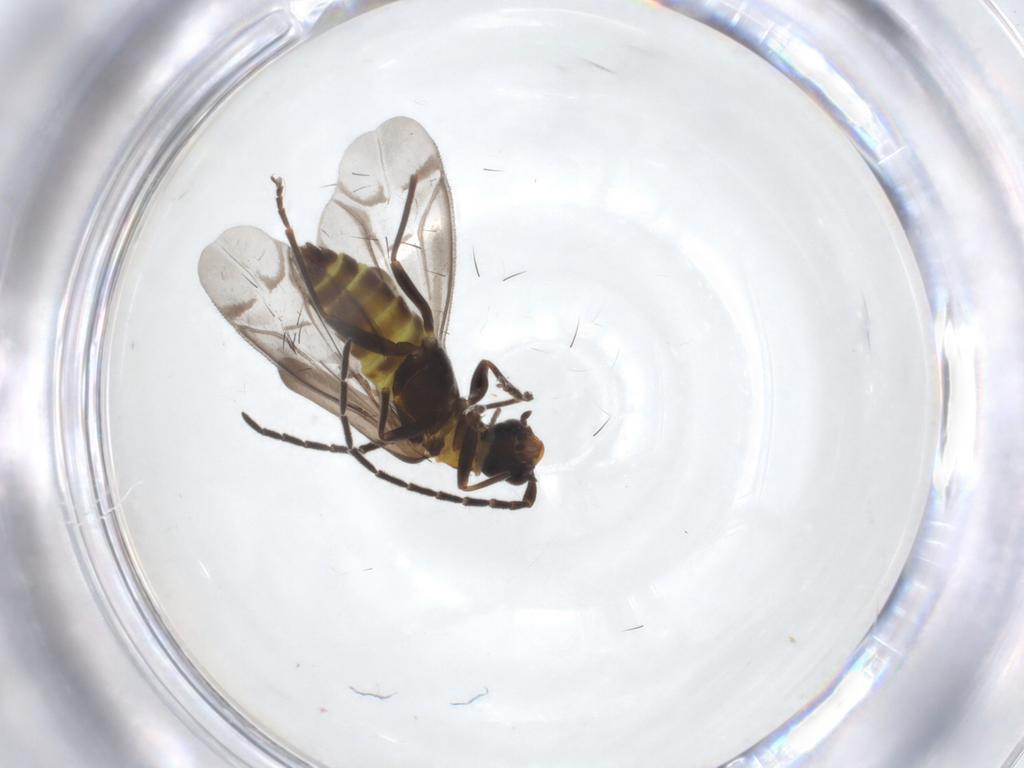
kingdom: Animalia
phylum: Arthropoda
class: Insecta
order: Coleoptera
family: Cantharidae
